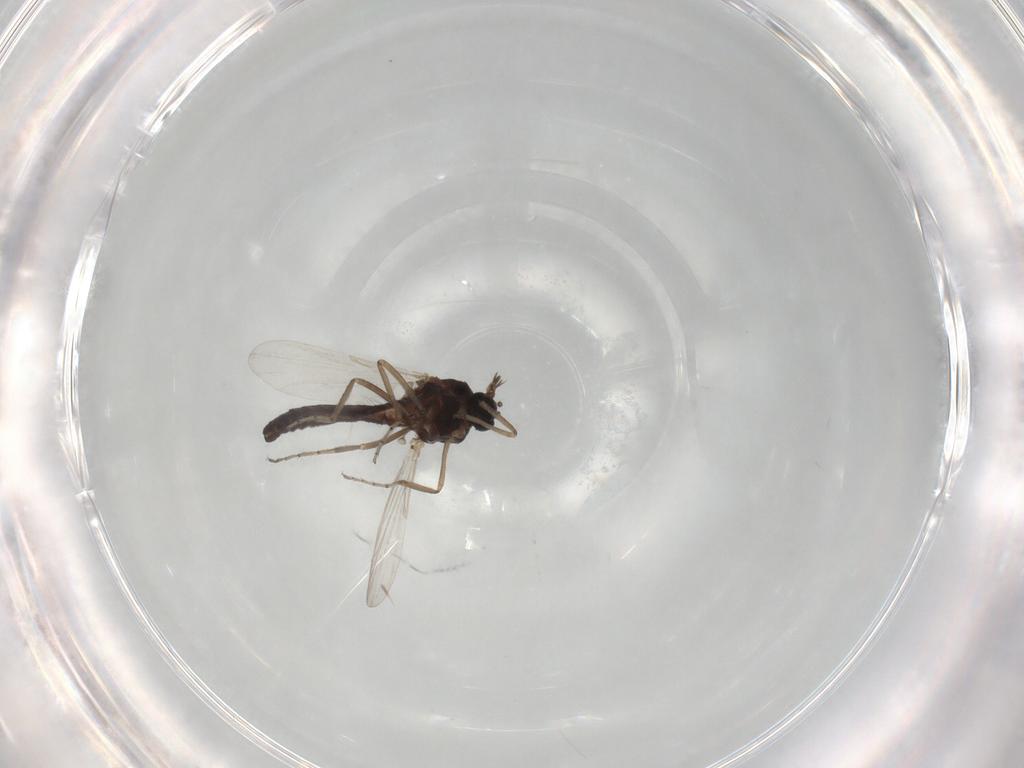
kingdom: Animalia
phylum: Arthropoda
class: Insecta
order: Diptera
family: Ceratopogonidae
